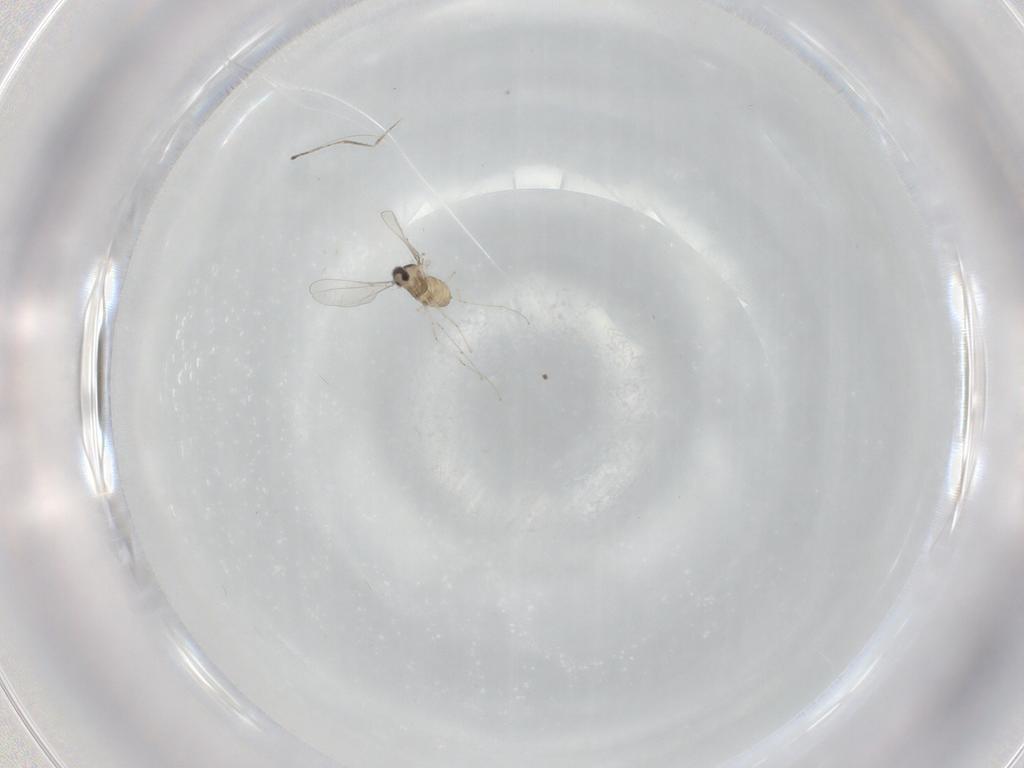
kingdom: Animalia
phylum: Arthropoda
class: Insecta
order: Diptera
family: Cecidomyiidae
